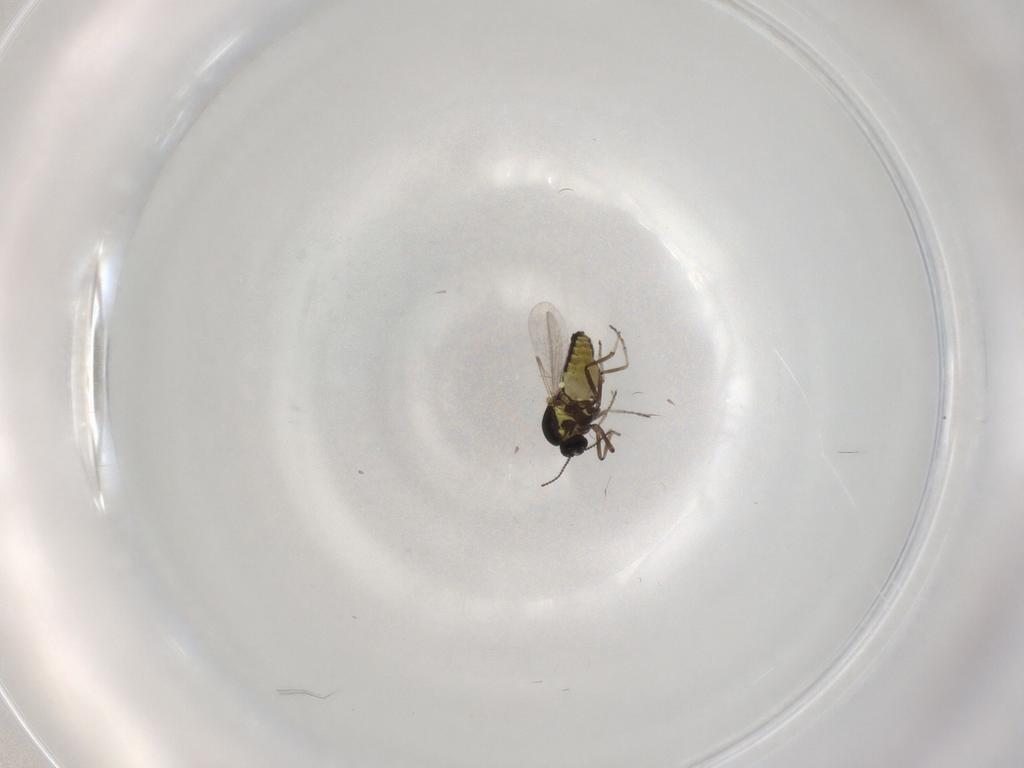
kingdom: Animalia
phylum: Arthropoda
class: Insecta
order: Diptera
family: Ceratopogonidae
